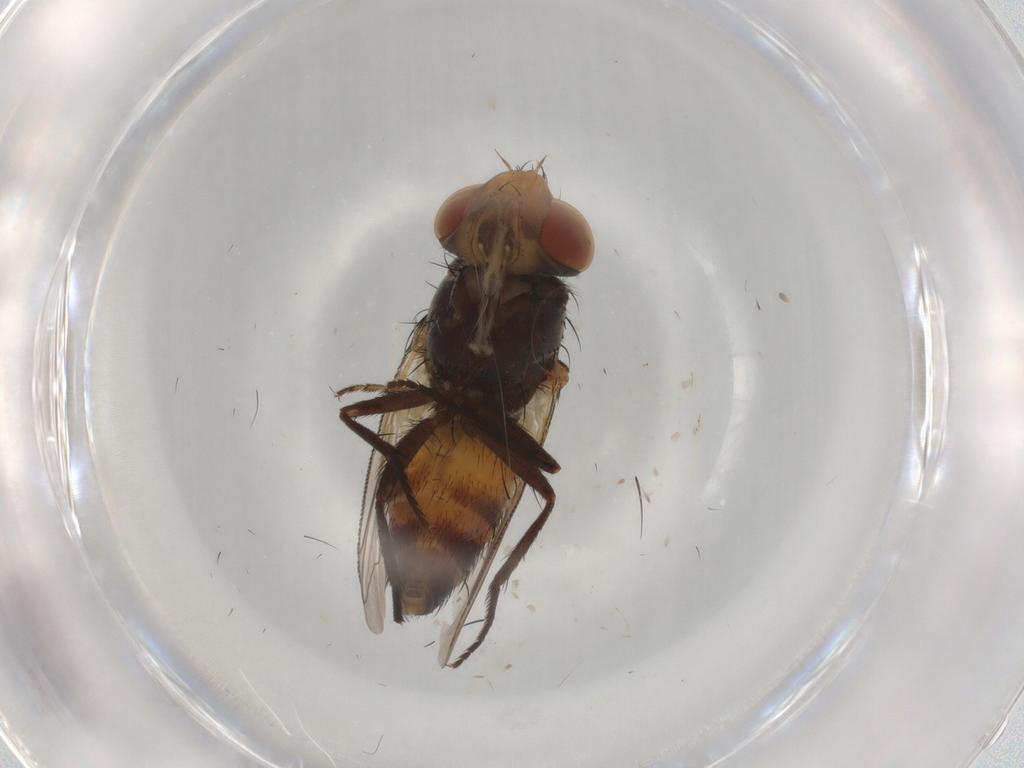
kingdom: Animalia
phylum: Arthropoda
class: Insecta
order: Diptera
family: Sarcophagidae
